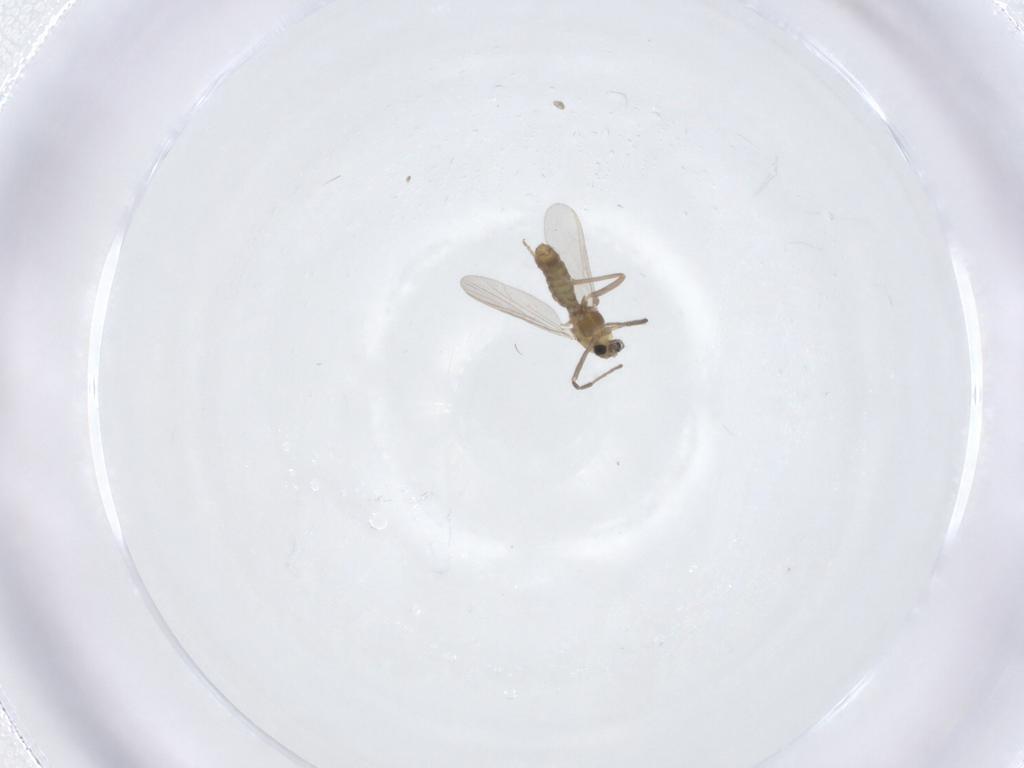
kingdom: Animalia
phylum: Arthropoda
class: Insecta
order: Diptera
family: Chironomidae
